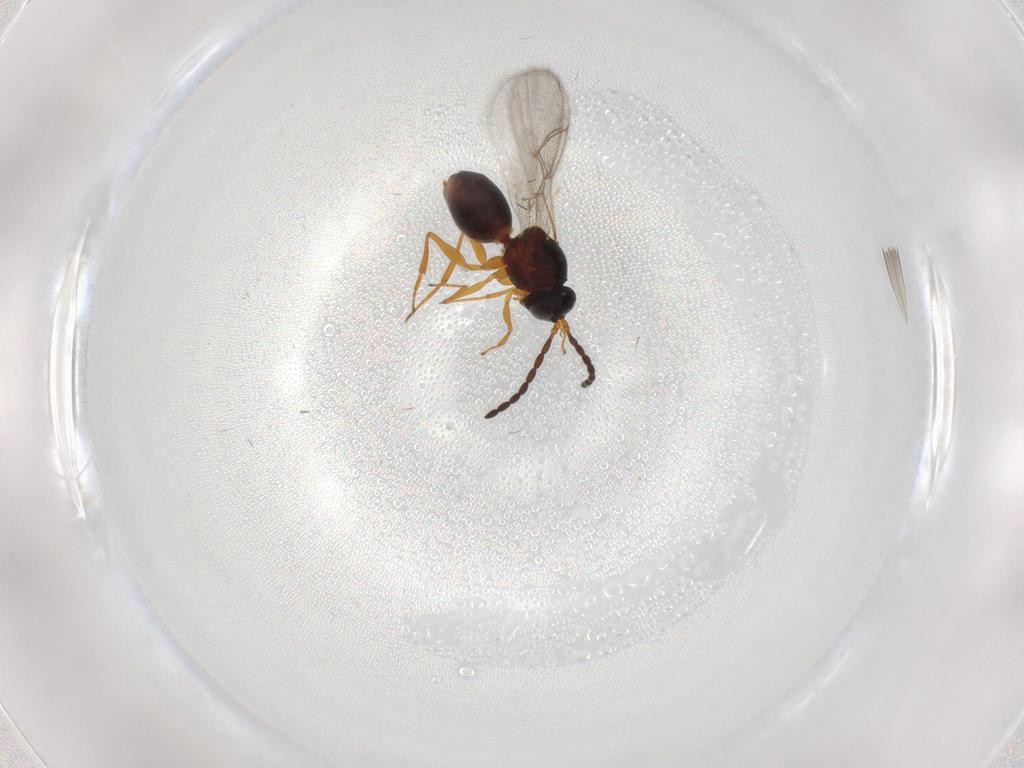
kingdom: Animalia
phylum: Arthropoda
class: Insecta
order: Hymenoptera
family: Figitidae
